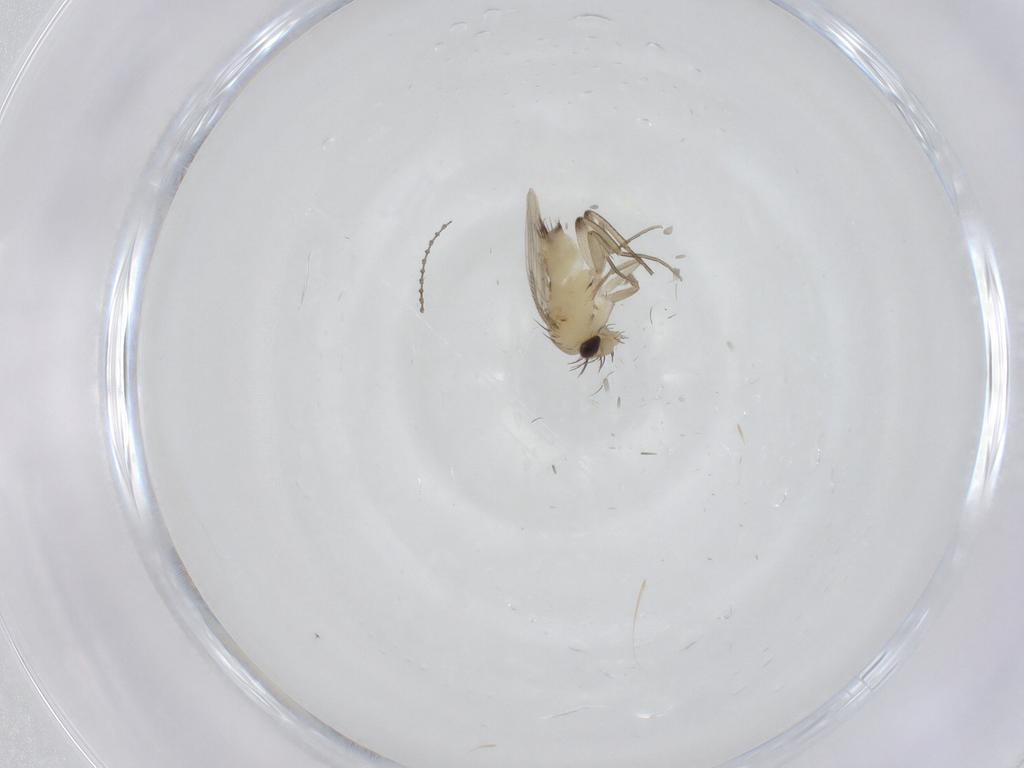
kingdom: Animalia
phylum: Arthropoda
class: Insecta
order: Diptera
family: Phoridae
